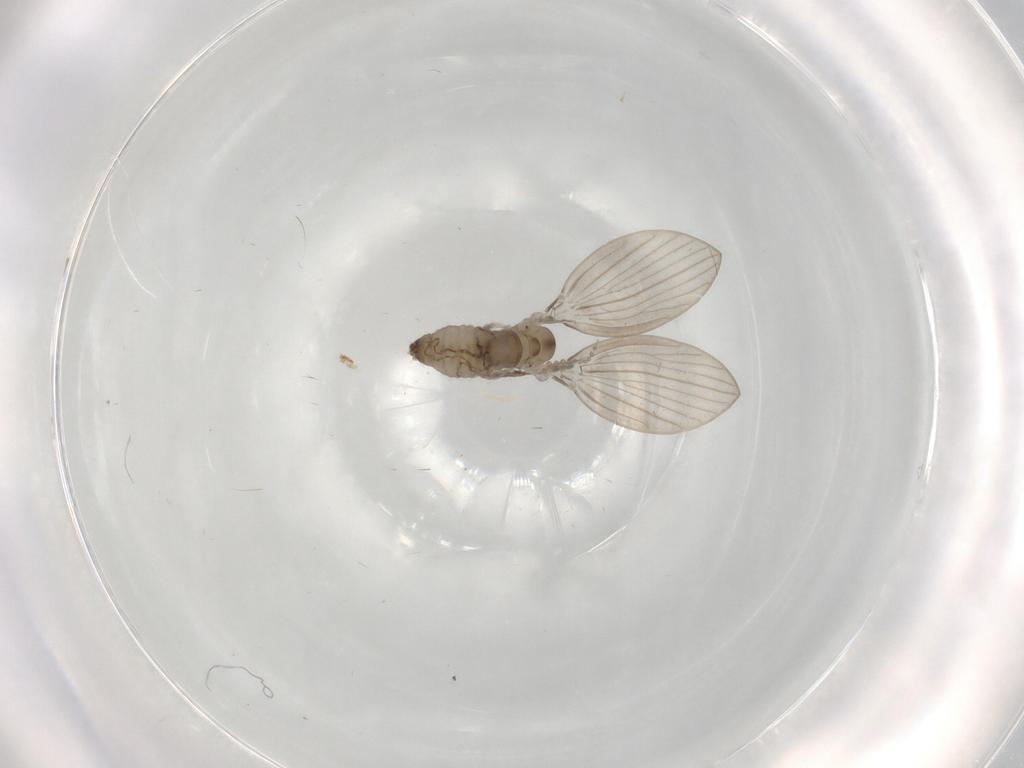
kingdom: Animalia
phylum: Arthropoda
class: Insecta
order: Diptera
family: Psychodidae
